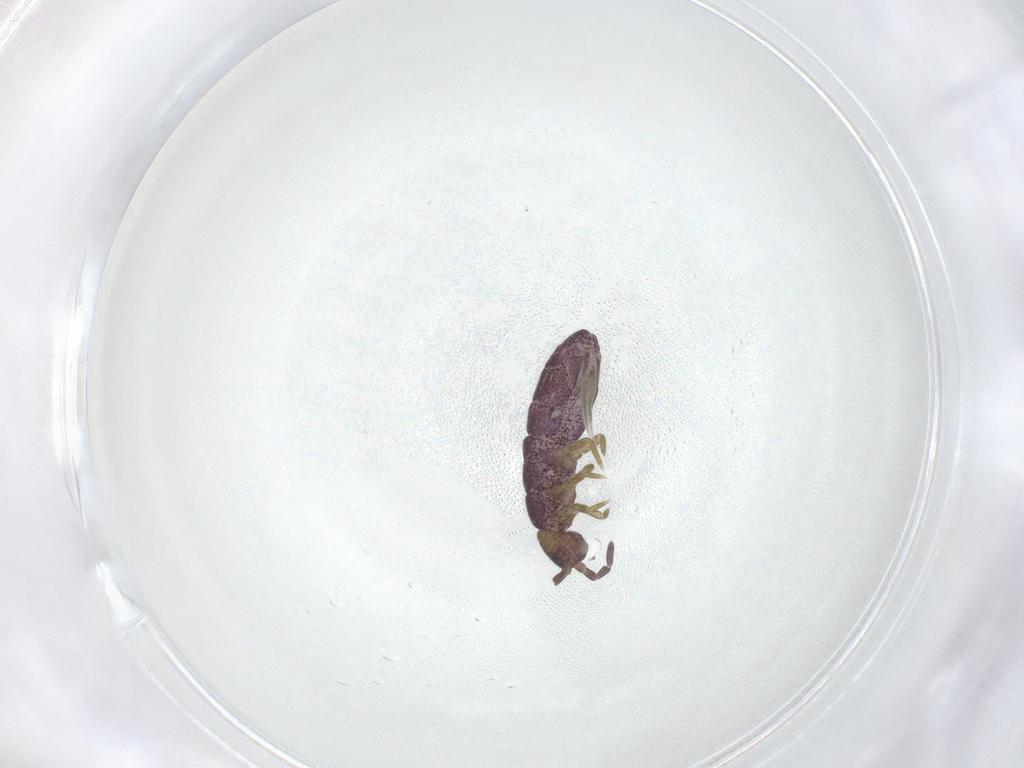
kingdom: Animalia
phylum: Arthropoda
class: Collembola
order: Entomobryomorpha
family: Isotomidae
